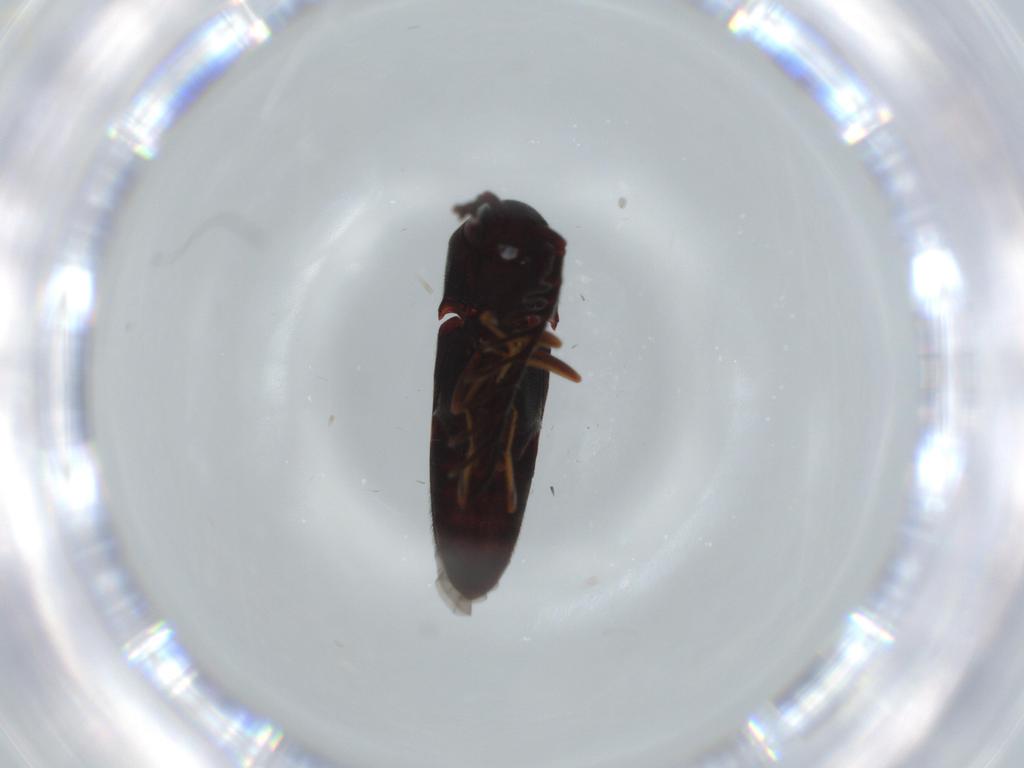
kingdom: Animalia
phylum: Arthropoda
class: Insecta
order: Coleoptera
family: Eucnemidae
